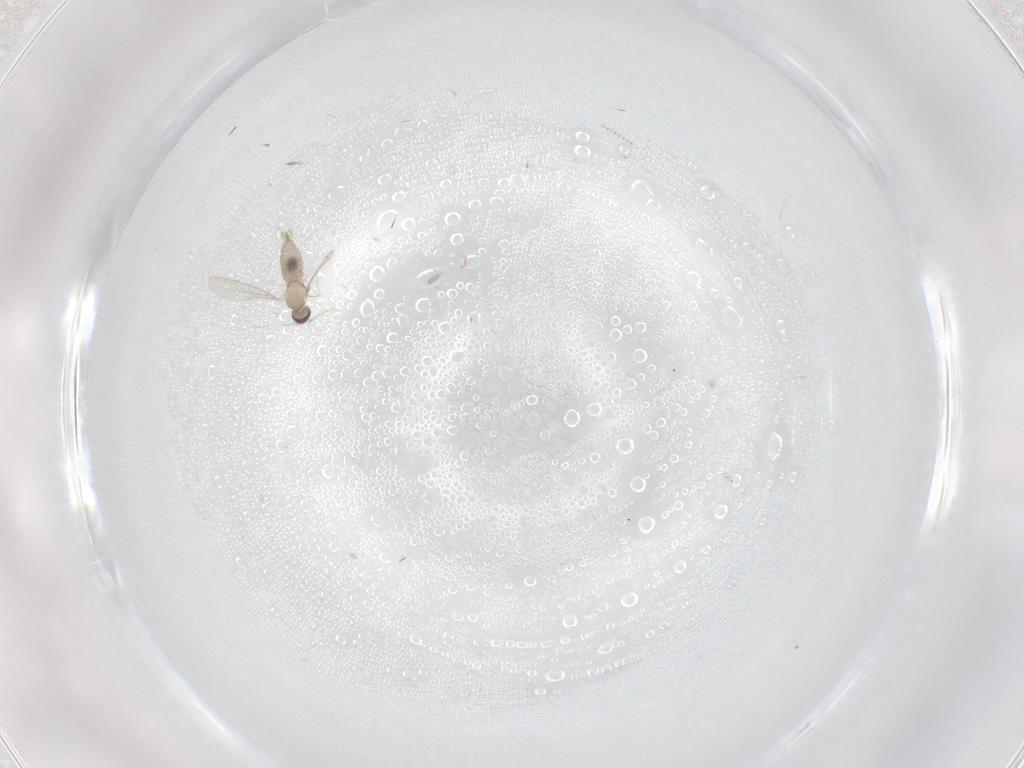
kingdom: Animalia
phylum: Arthropoda
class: Insecta
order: Diptera
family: Cecidomyiidae
